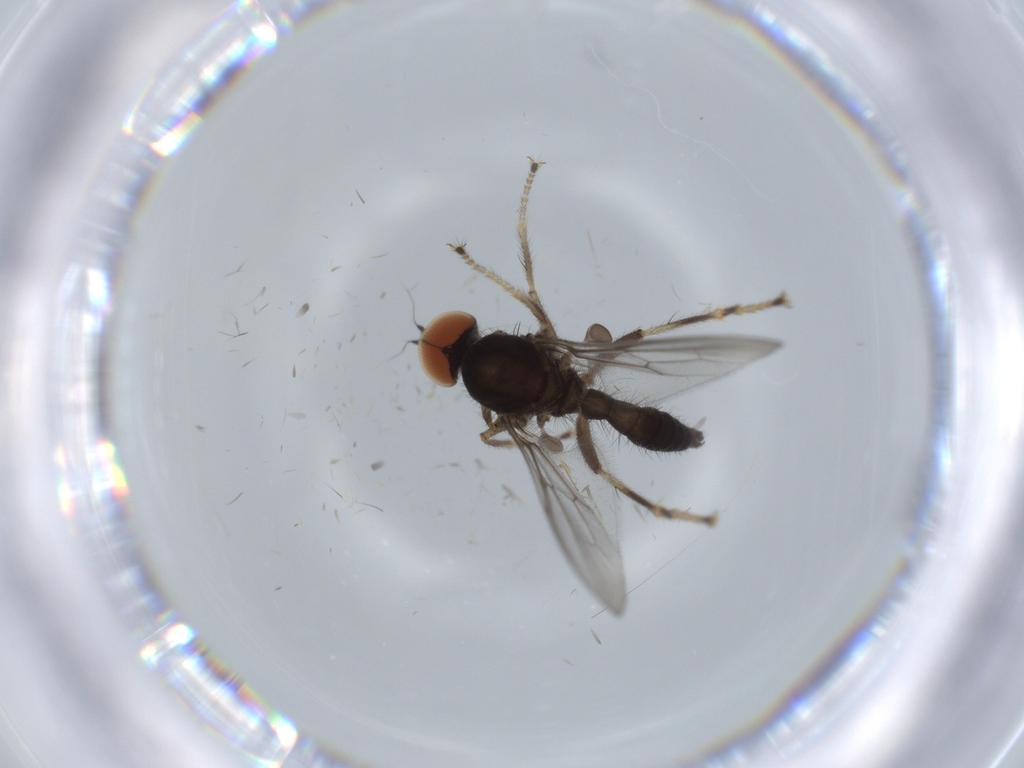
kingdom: Animalia
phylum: Arthropoda
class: Insecta
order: Diptera
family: Hybotidae
